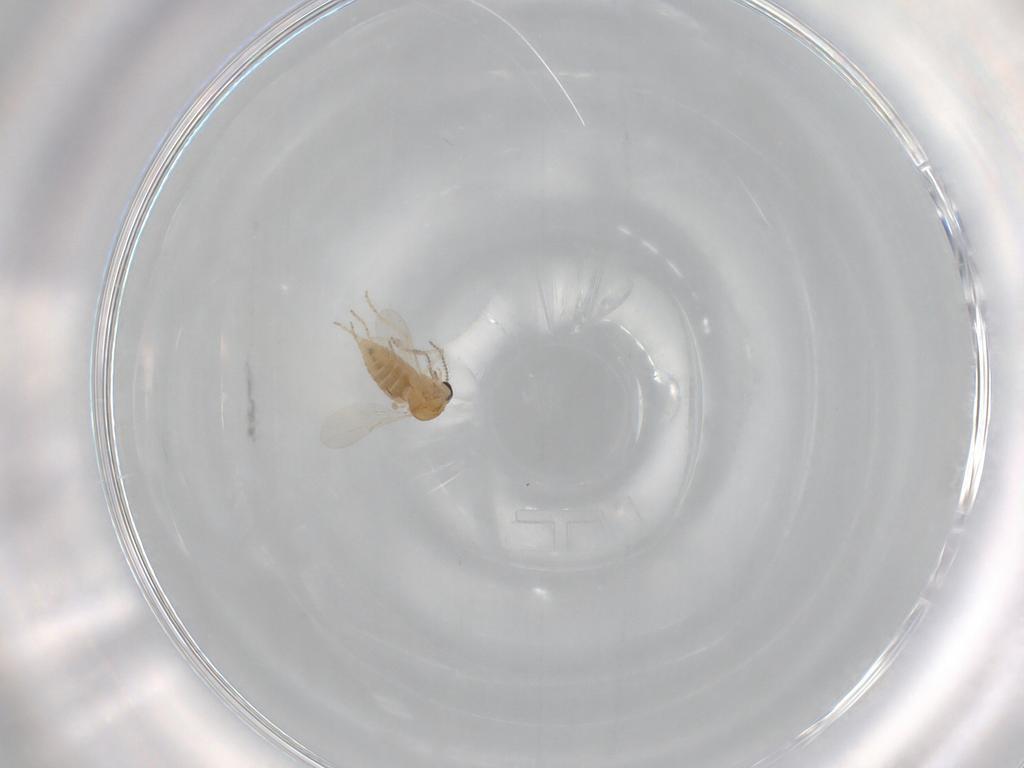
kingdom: Animalia
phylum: Arthropoda
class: Insecta
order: Diptera
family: Ceratopogonidae
